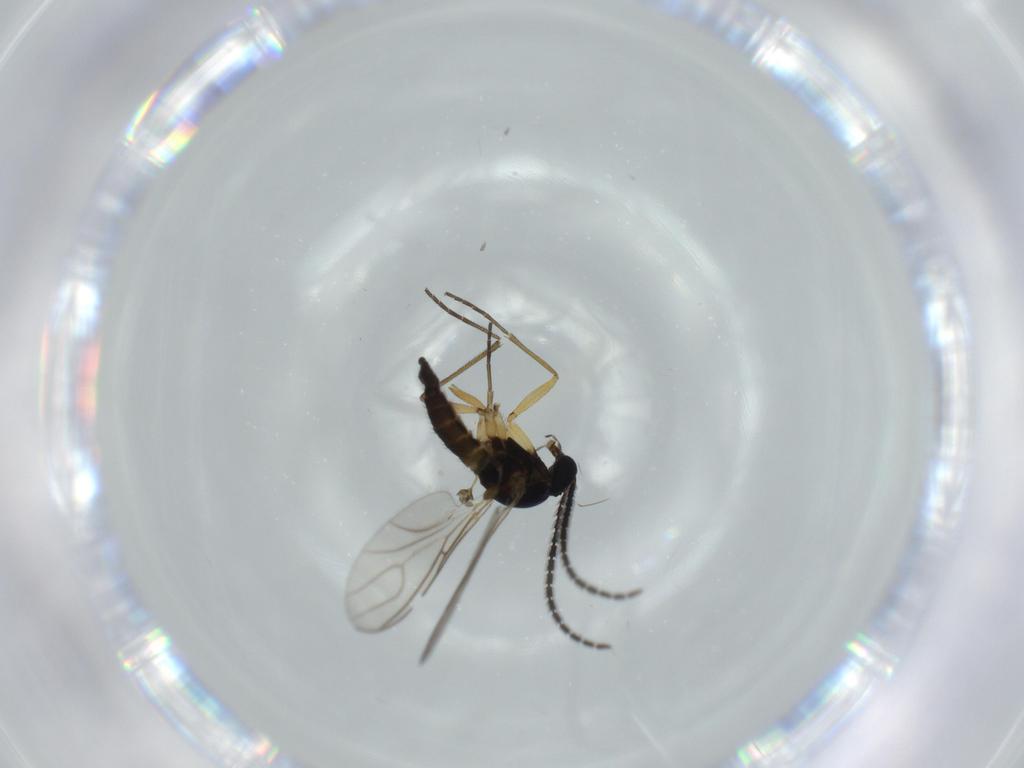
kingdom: Animalia
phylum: Arthropoda
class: Insecta
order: Diptera
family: Sciaridae
